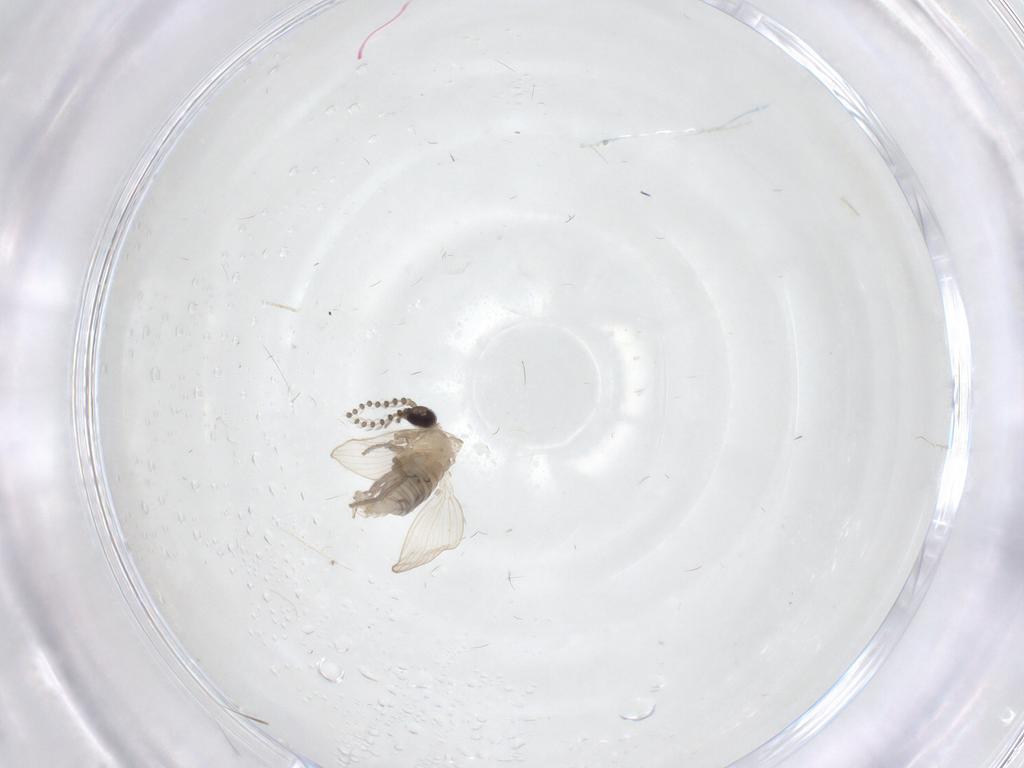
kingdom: Animalia
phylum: Arthropoda
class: Insecta
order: Diptera
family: Psychodidae
